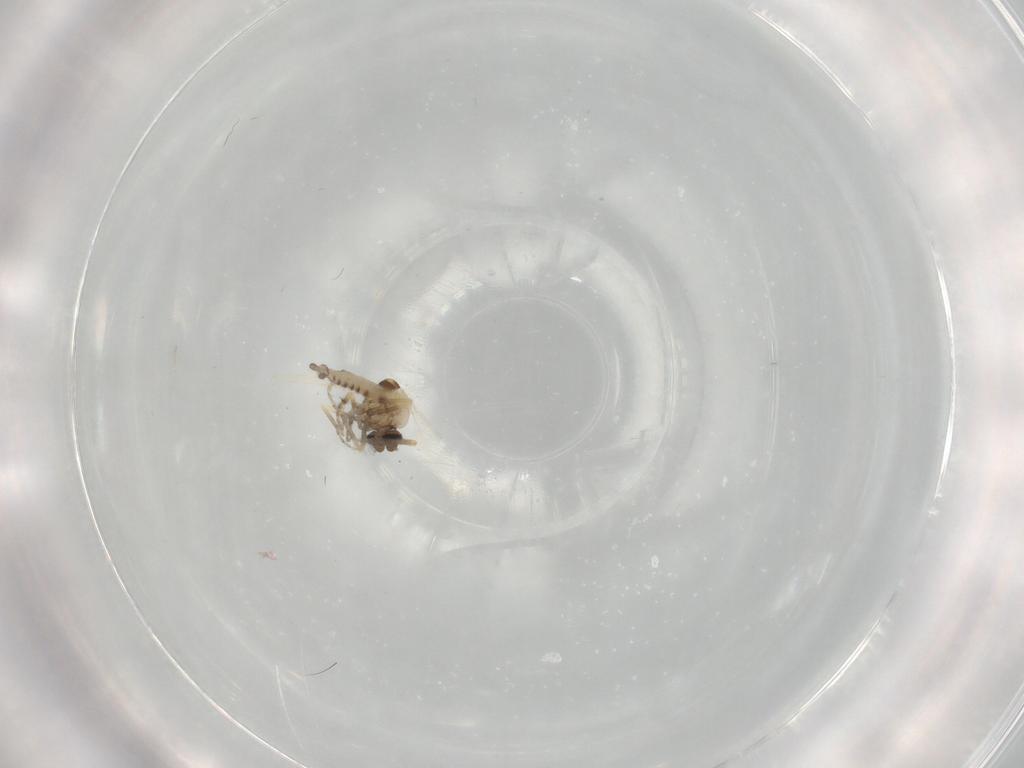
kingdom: Animalia
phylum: Arthropoda
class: Insecta
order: Diptera
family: Ceratopogonidae
